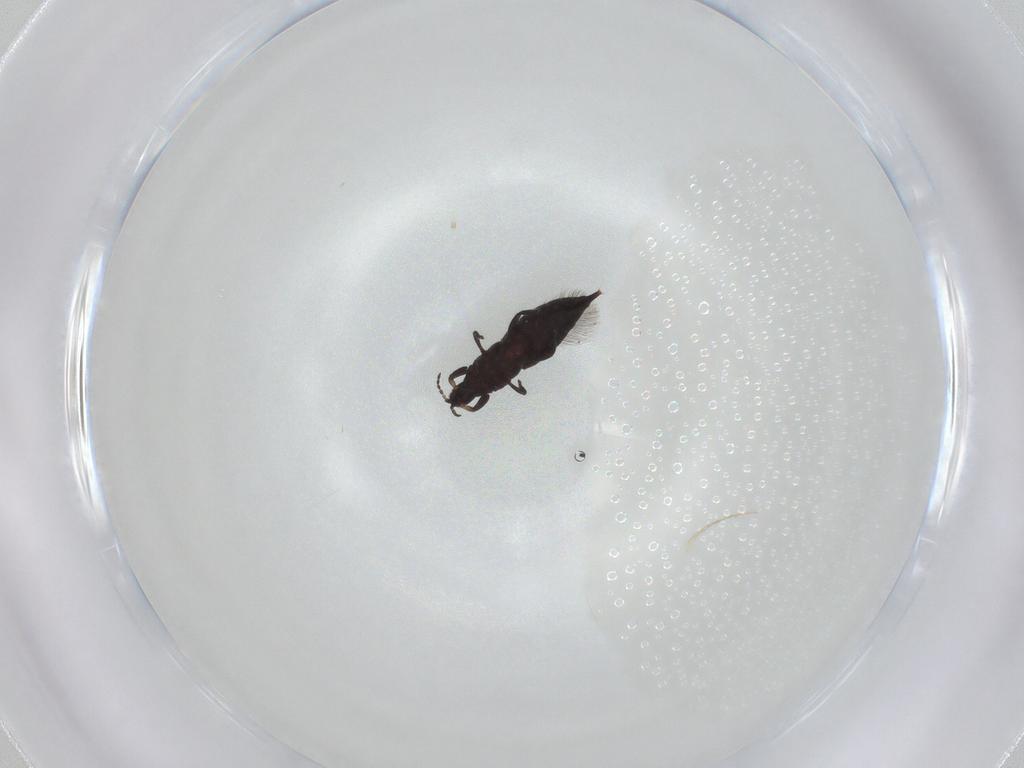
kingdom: Animalia
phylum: Arthropoda
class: Insecta
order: Thysanoptera
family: Phlaeothripidae
